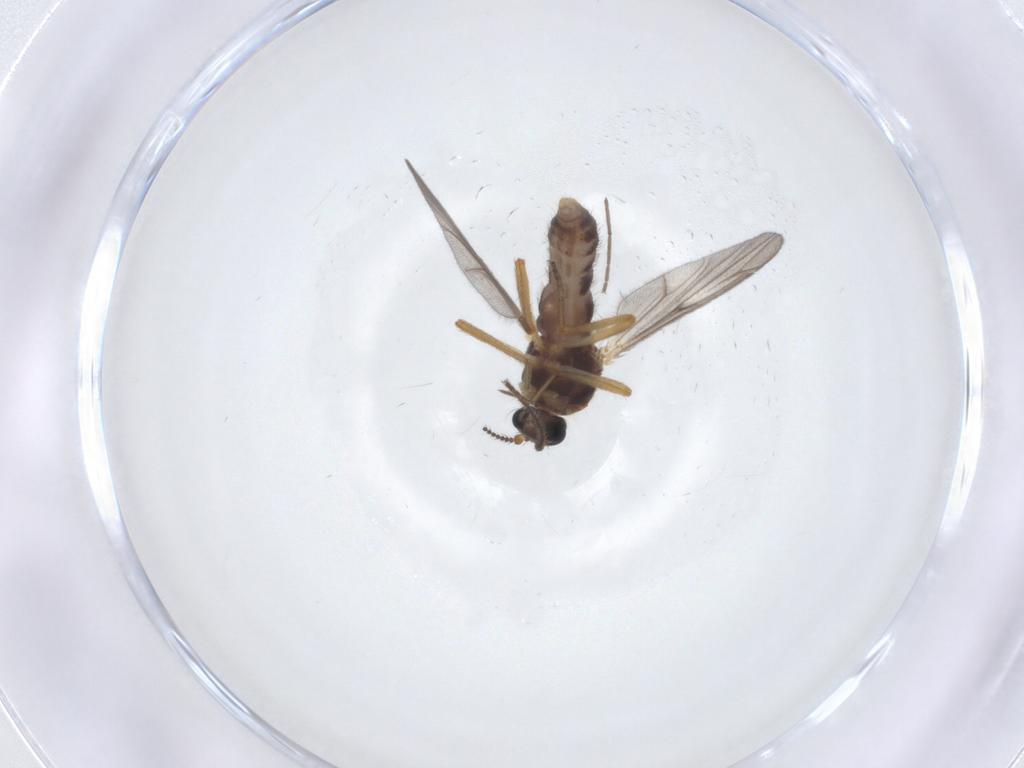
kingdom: Animalia
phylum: Arthropoda
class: Insecta
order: Diptera
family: Ceratopogonidae
